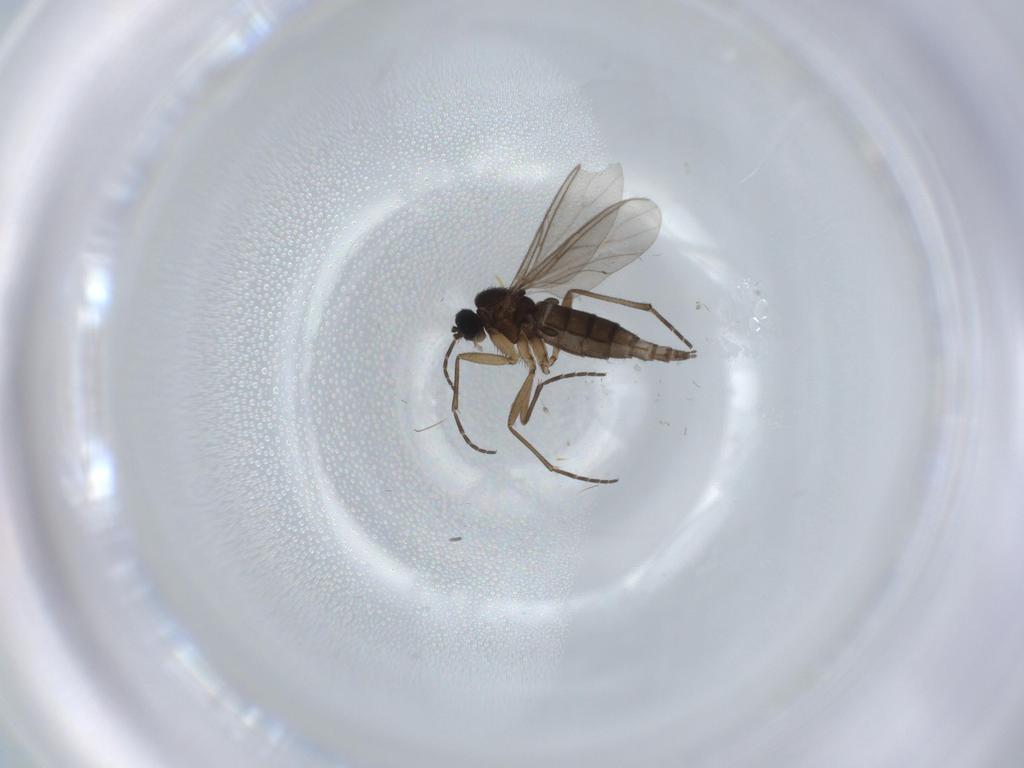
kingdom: Animalia
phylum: Arthropoda
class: Insecta
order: Diptera
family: Sciaridae
